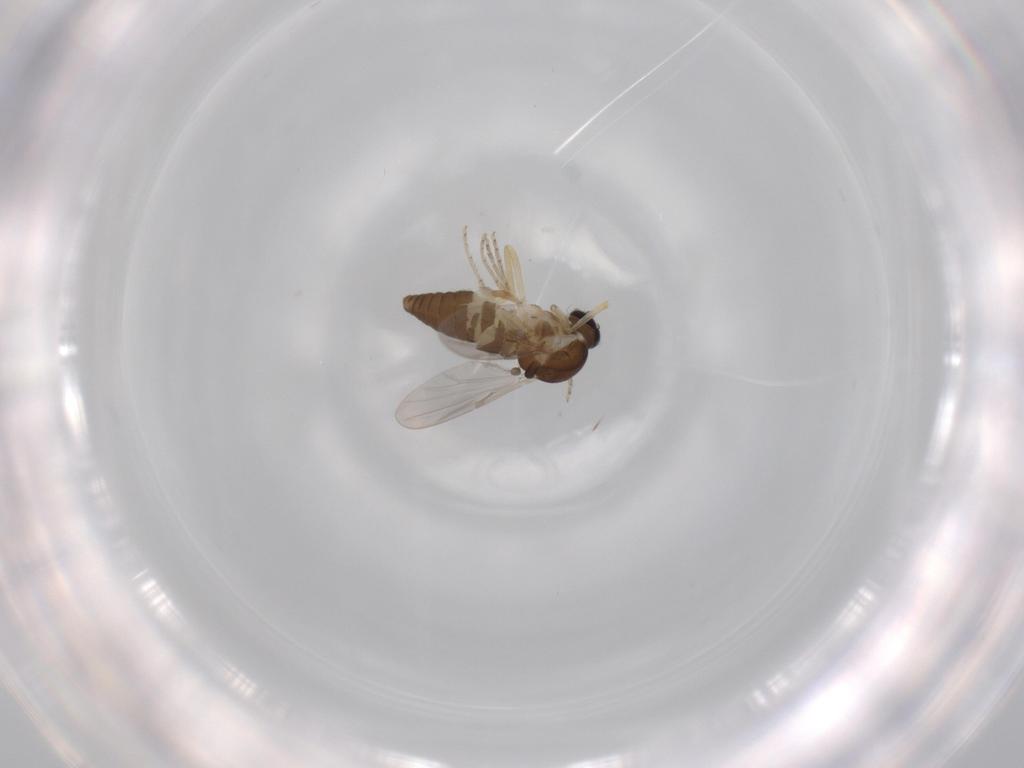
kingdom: Animalia
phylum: Arthropoda
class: Insecta
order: Diptera
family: Ceratopogonidae
